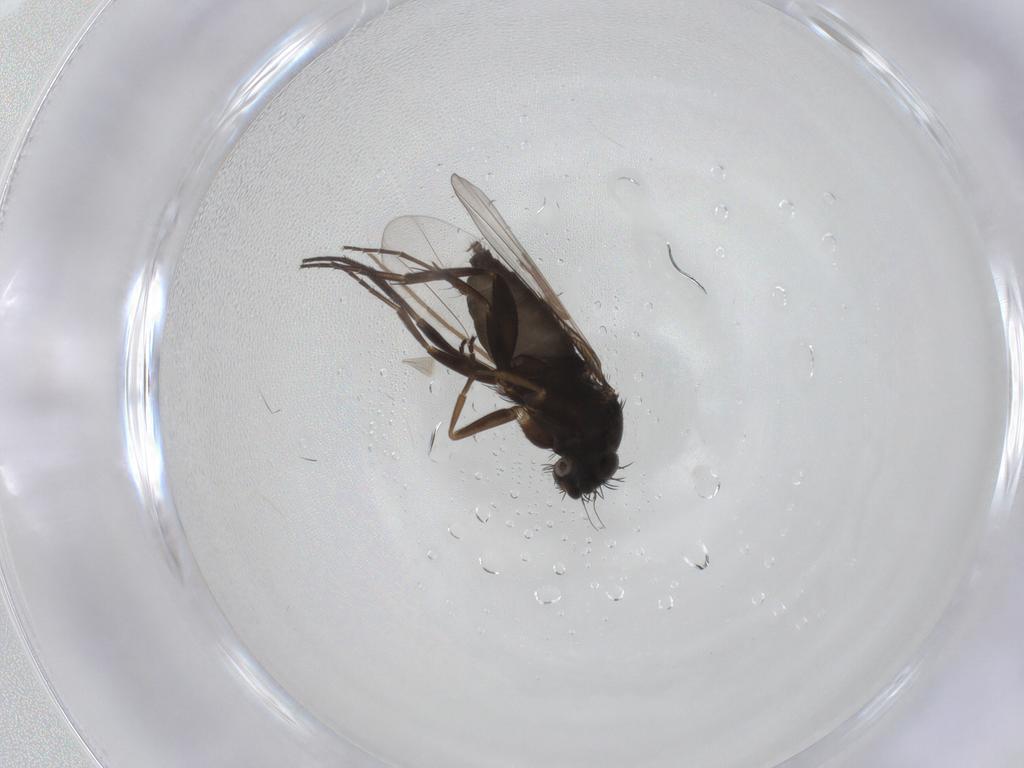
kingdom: Animalia
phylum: Arthropoda
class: Insecta
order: Diptera
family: Phoridae
